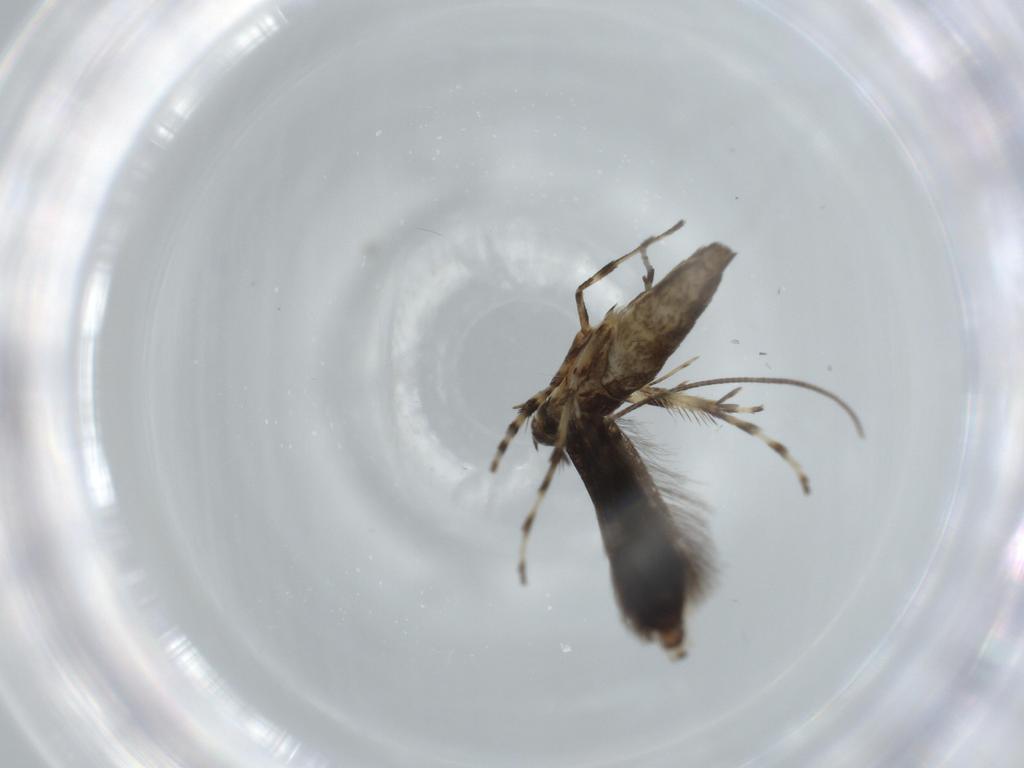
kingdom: Animalia
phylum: Arthropoda
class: Insecta
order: Lepidoptera
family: Gracillariidae
